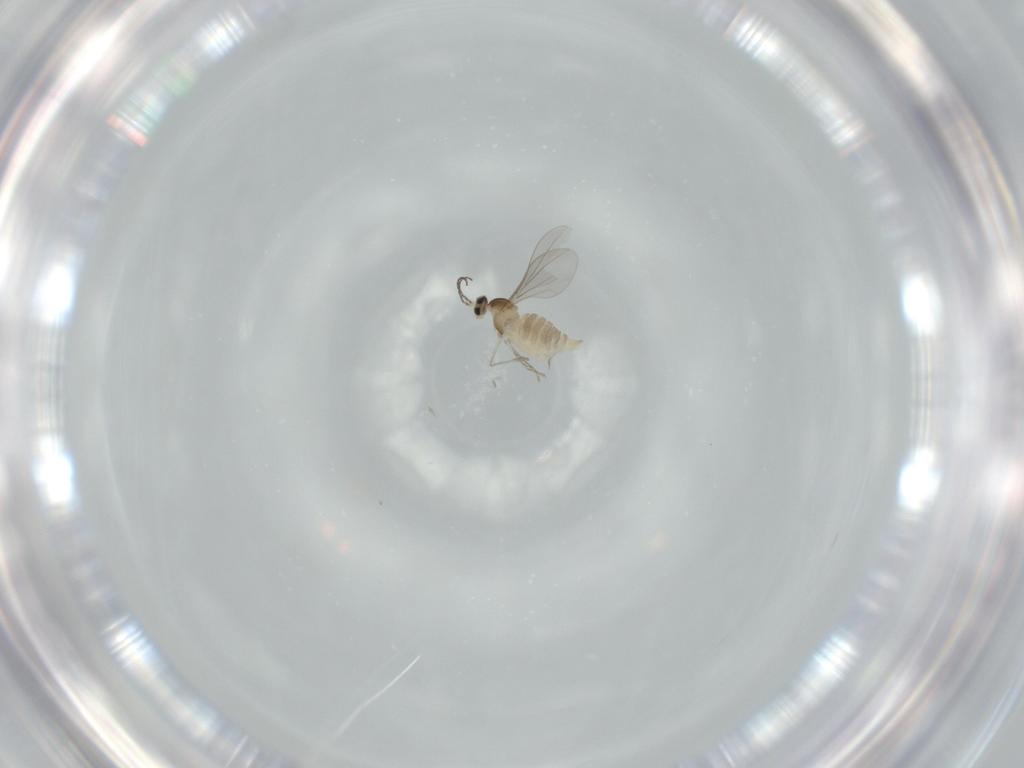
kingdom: Animalia
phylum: Arthropoda
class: Insecta
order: Diptera
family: Cecidomyiidae
